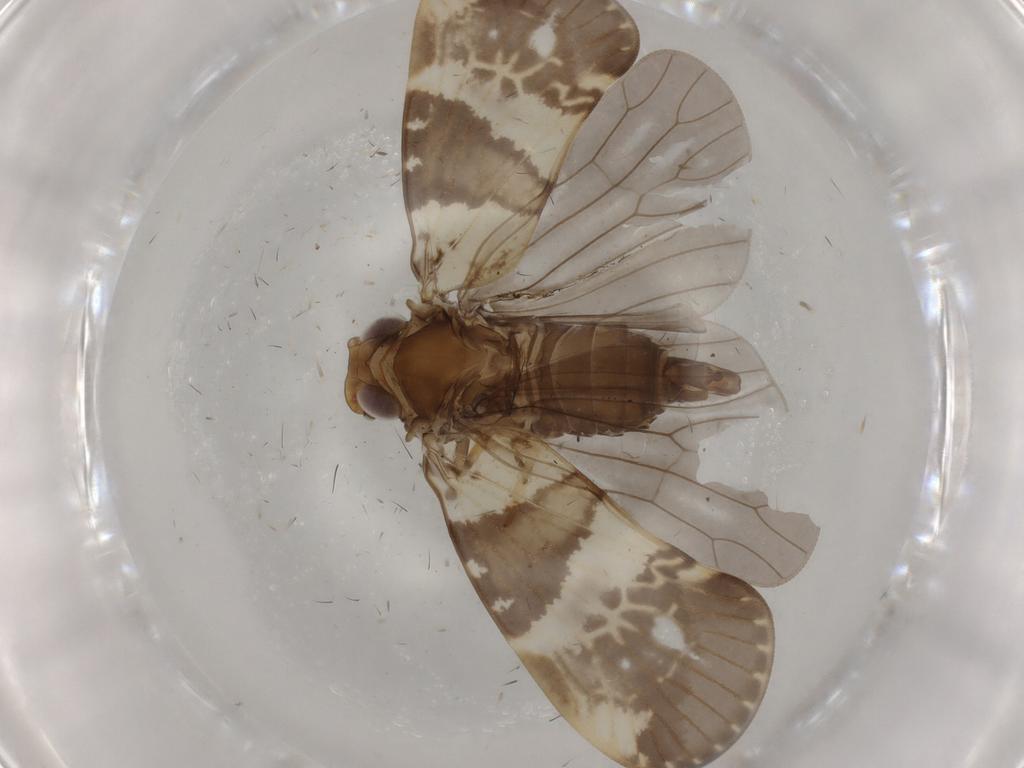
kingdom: Animalia
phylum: Arthropoda
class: Insecta
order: Hemiptera
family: Cixiidae
